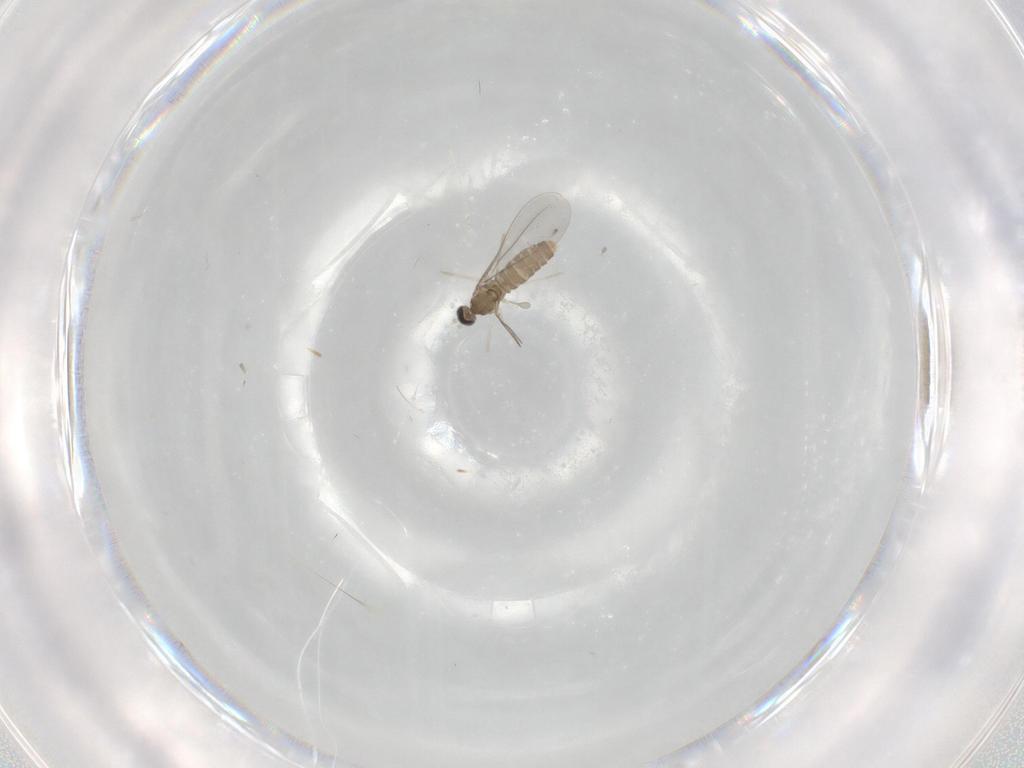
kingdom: Animalia
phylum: Arthropoda
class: Insecta
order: Diptera
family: Cecidomyiidae
